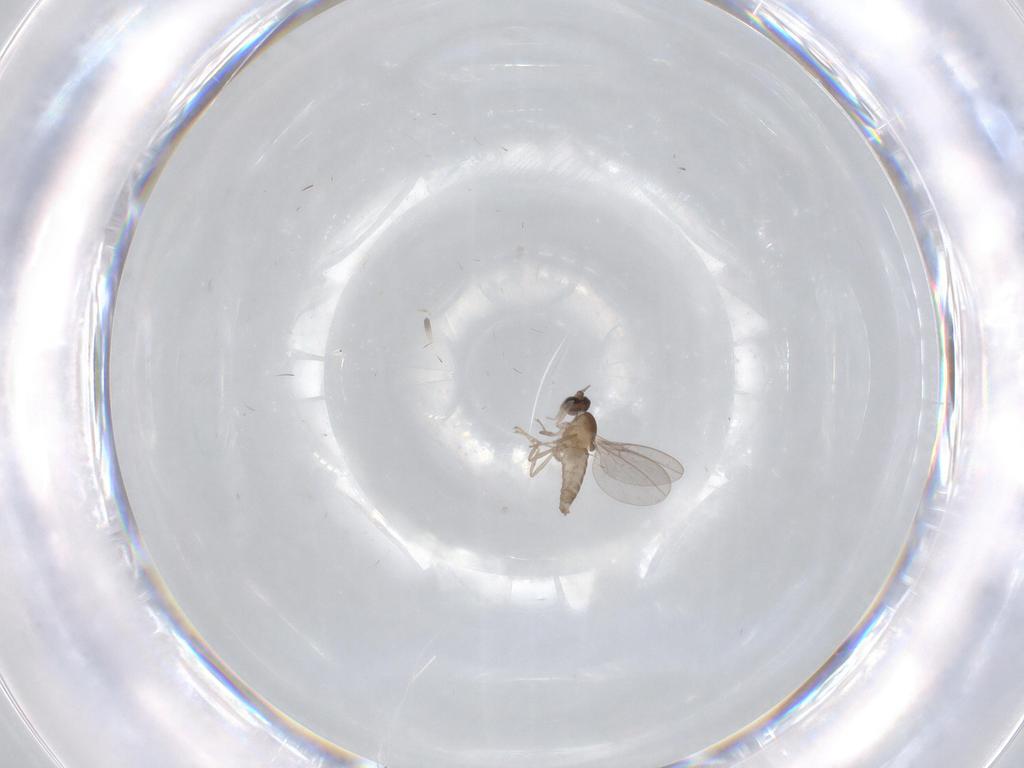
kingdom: Animalia
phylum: Arthropoda
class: Insecta
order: Diptera
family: Cecidomyiidae
